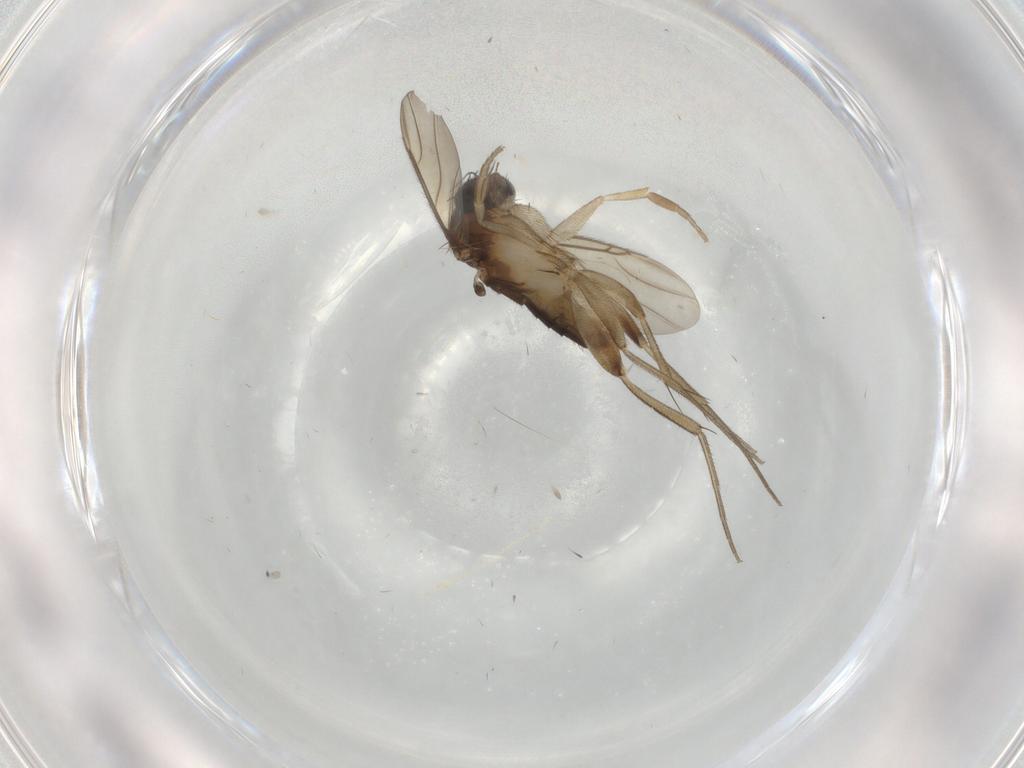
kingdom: Animalia
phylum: Arthropoda
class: Insecta
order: Diptera
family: Phoridae
